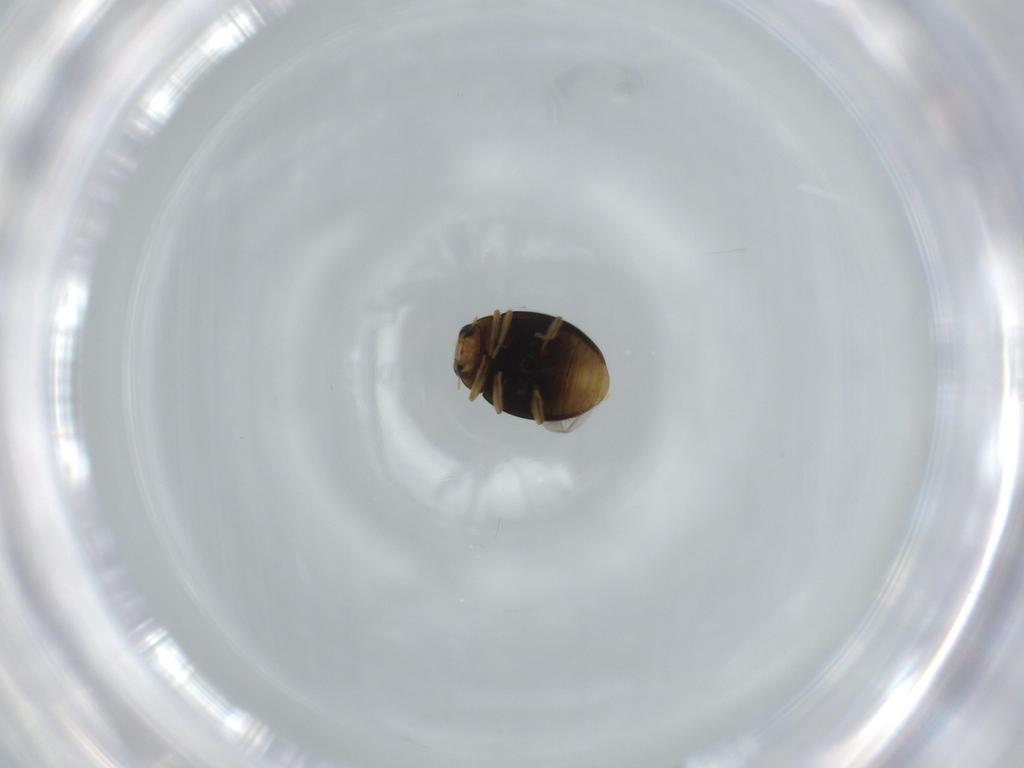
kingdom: Animalia
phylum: Arthropoda
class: Insecta
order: Coleoptera
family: Coccinellidae
